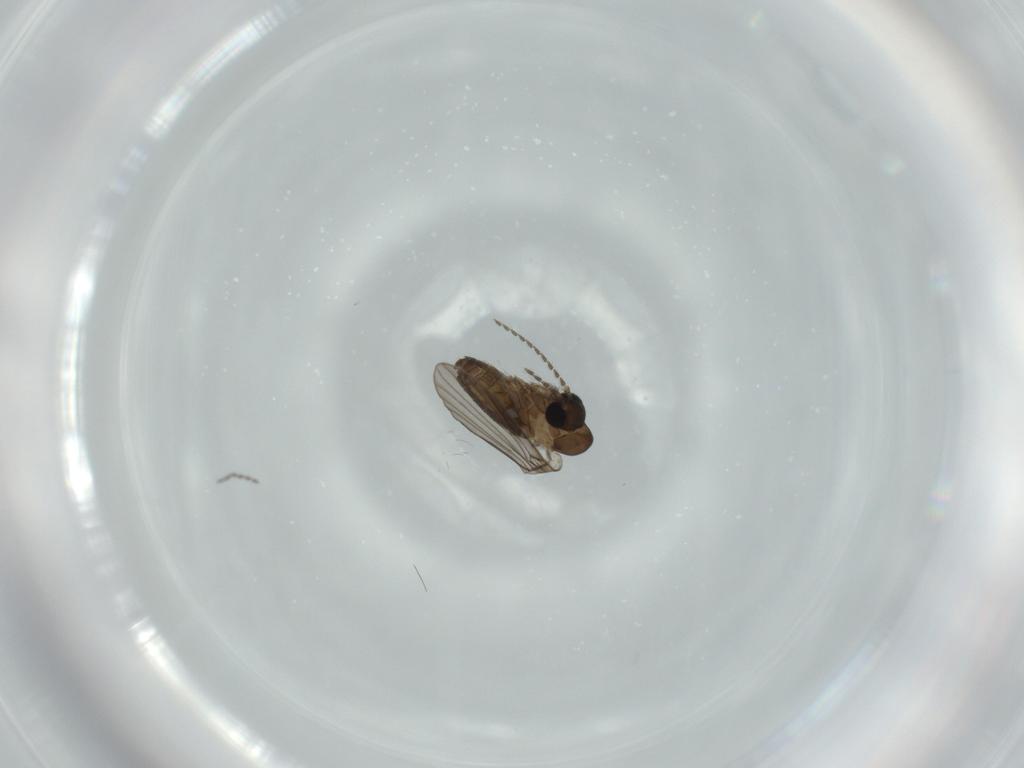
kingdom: Animalia
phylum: Arthropoda
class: Insecta
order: Diptera
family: Psychodidae
